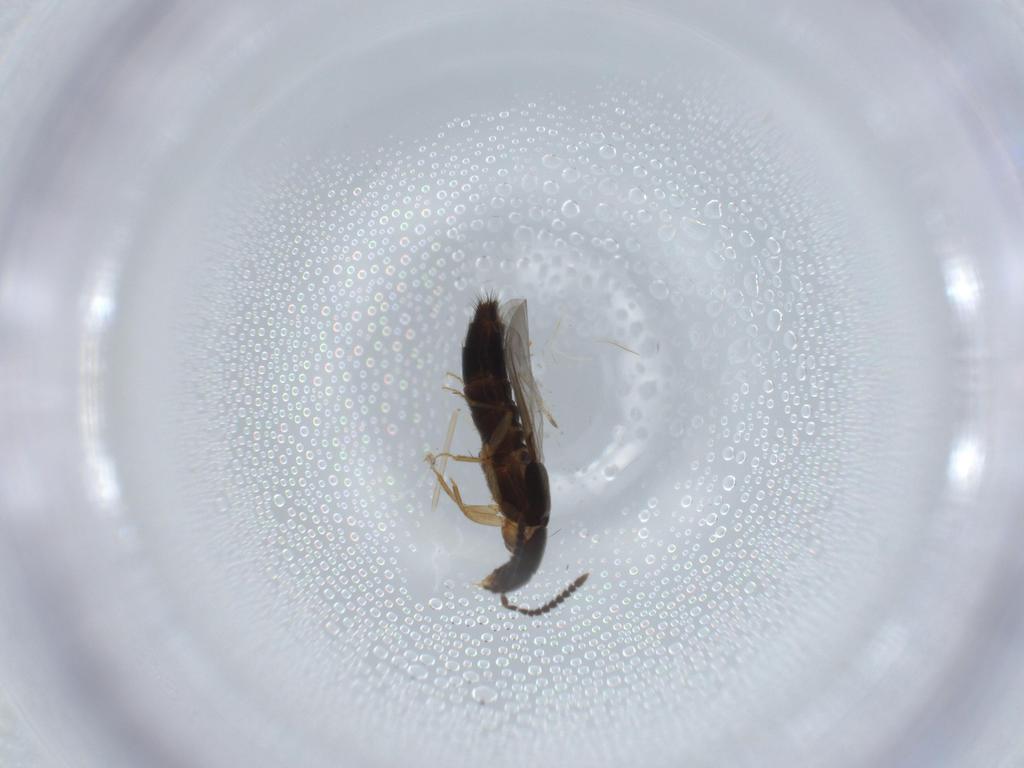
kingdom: Animalia
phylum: Arthropoda
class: Insecta
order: Coleoptera
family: Staphylinidae
